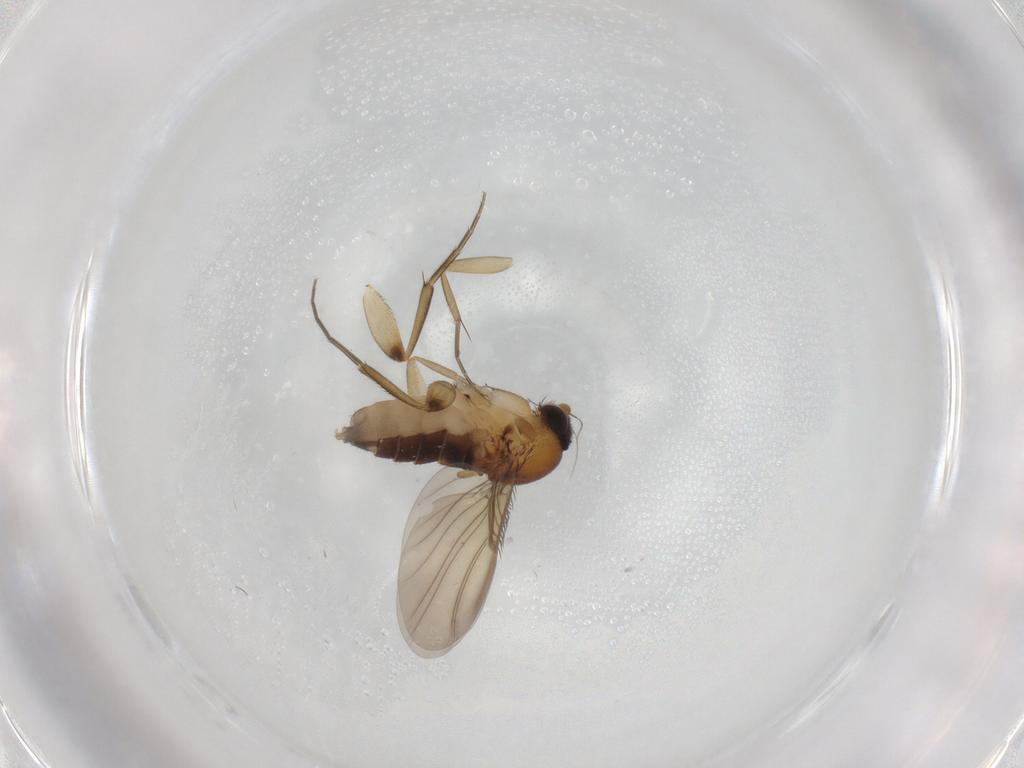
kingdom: Animalia
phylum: Arthropoda
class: Insecta
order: Diptera
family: Phoridae
